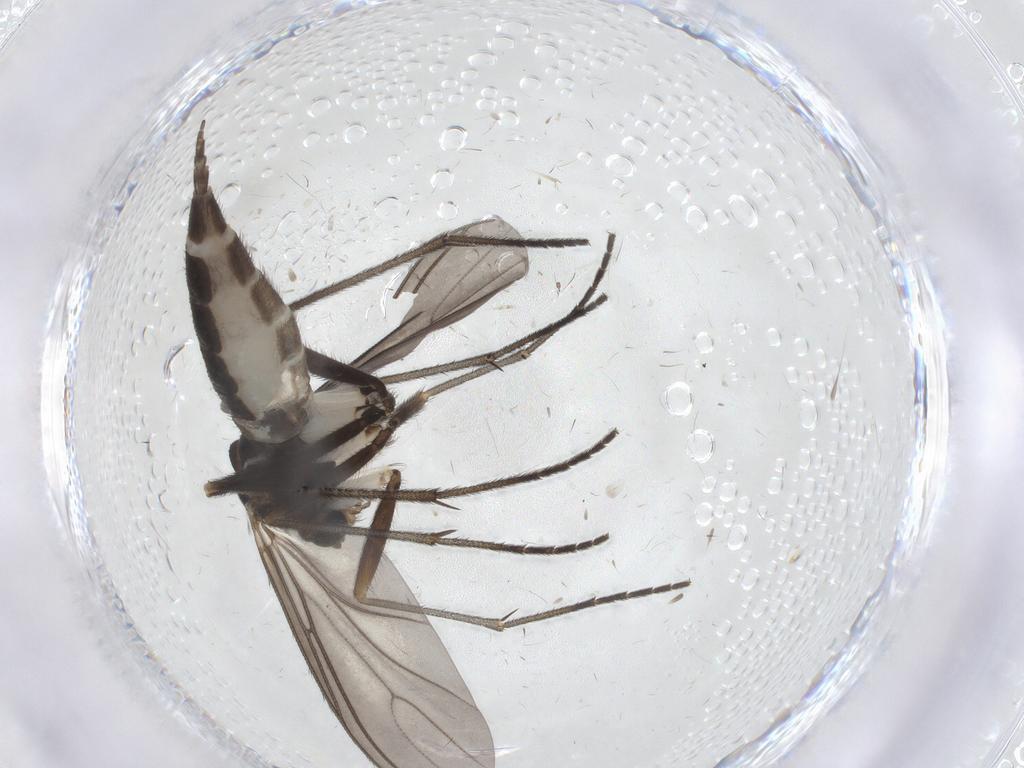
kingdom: Animalia
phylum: Arthropoda
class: Insecta
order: Diptera
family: Sciaridae
